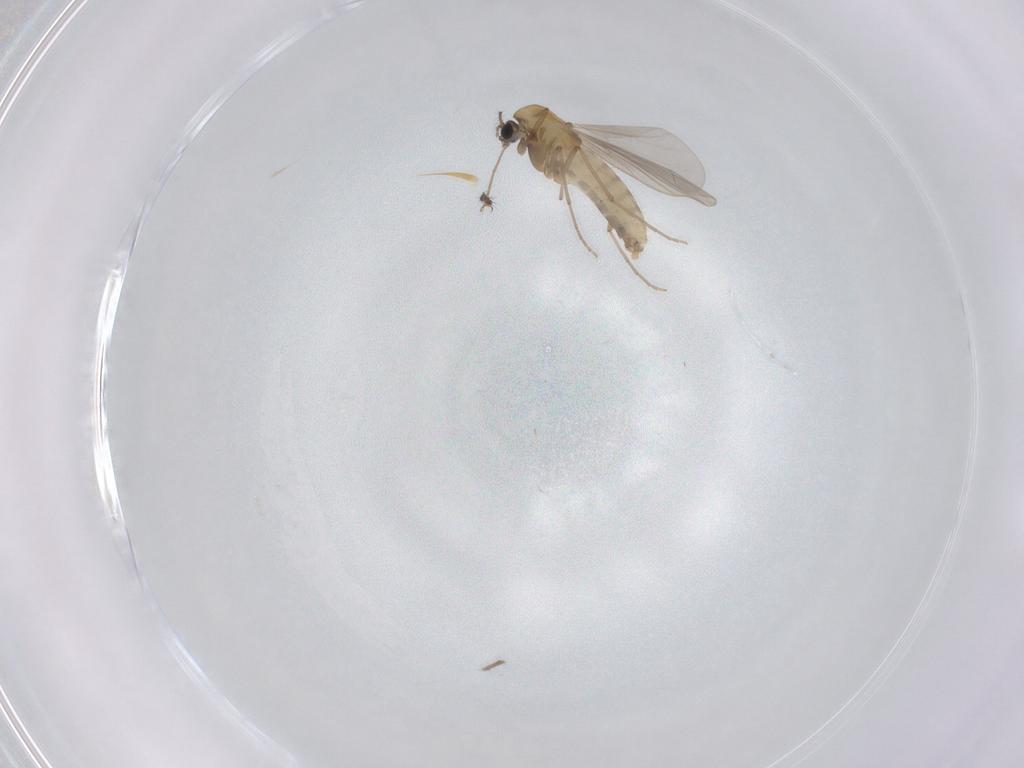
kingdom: Animalia
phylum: Arthropoda
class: Insecta
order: Diptera
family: Chironomidae
